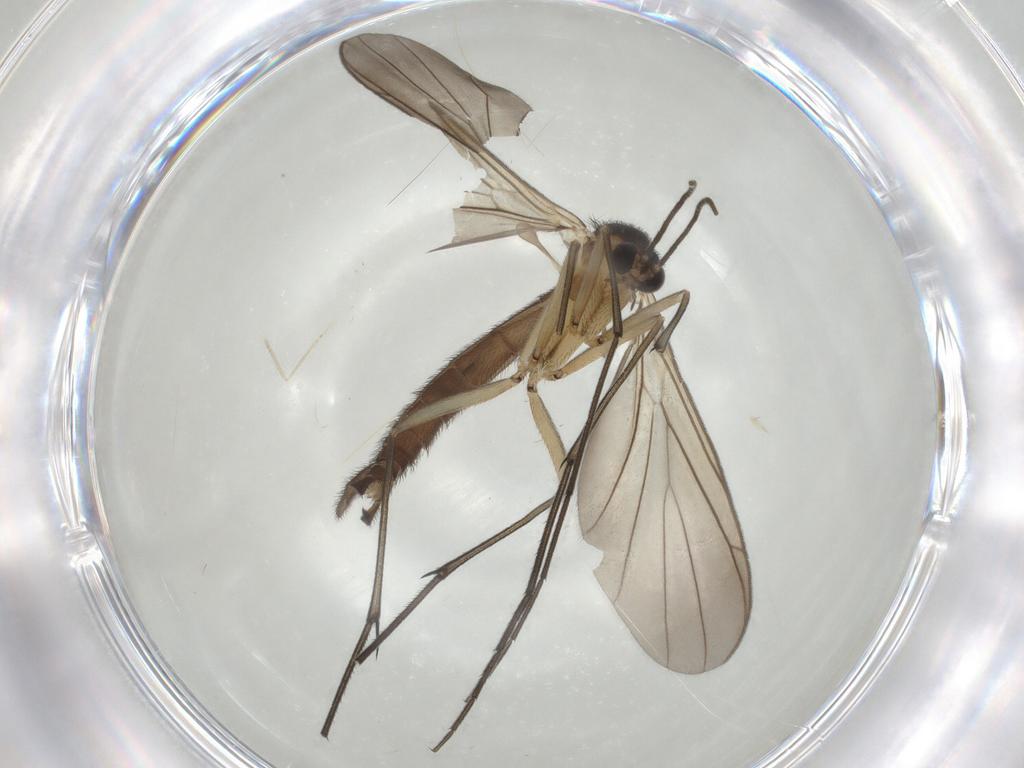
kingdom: Animalia
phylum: Arthropoda
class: Insecta
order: Diptera
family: Keroplatidae
